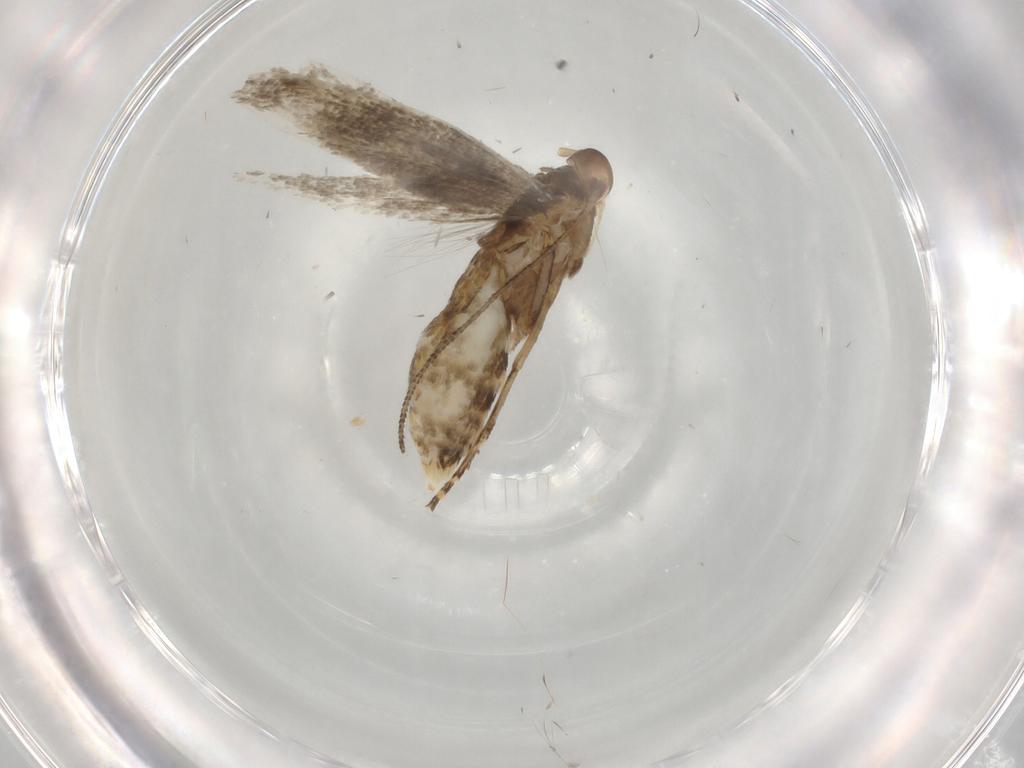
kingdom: Animalia
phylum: Arthropoda
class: Insecta
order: Lepidoptera
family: Momphidae
